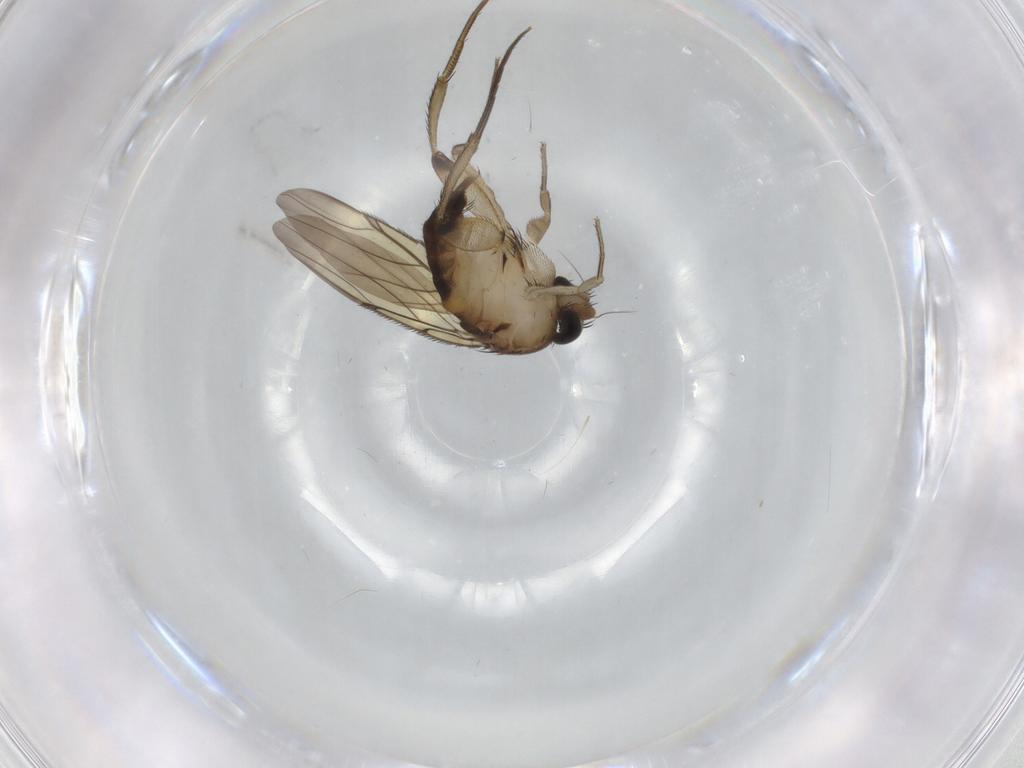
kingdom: Animalia
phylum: Arthropoda
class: Insecta
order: Diptera
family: Phoridae
